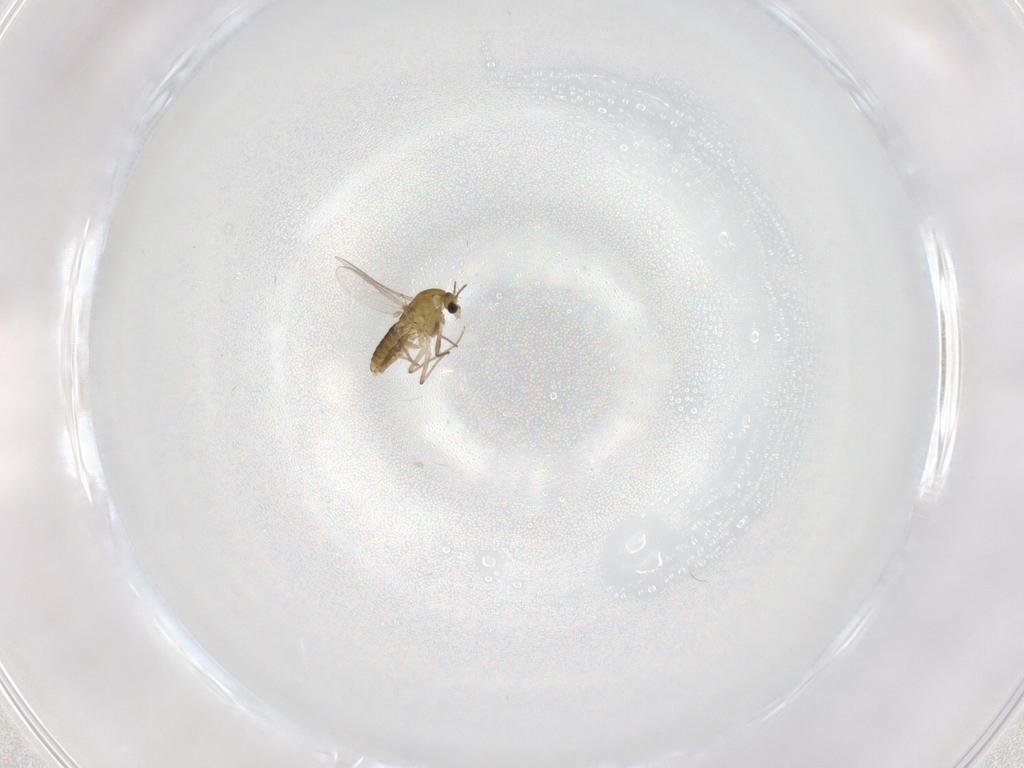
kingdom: Animalia
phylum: Arthropoda
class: Insecta
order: Diptera
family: Chironomidae
